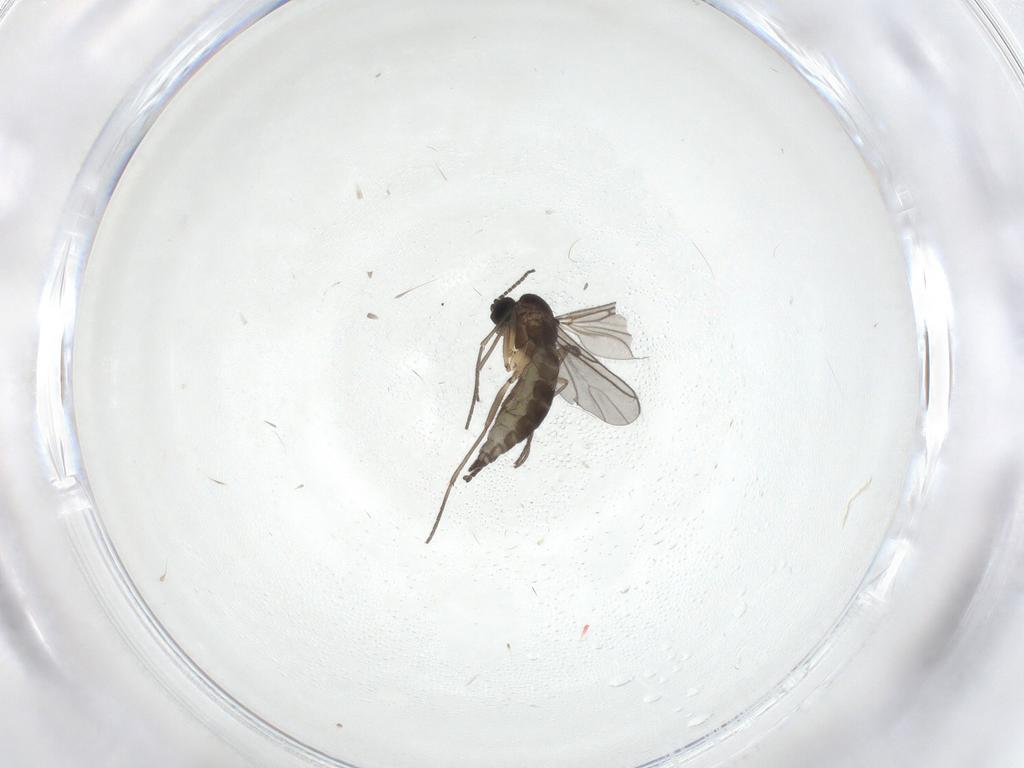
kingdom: Animalia
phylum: Arthropoda
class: Insecta
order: Diptera
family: Sciaridae
